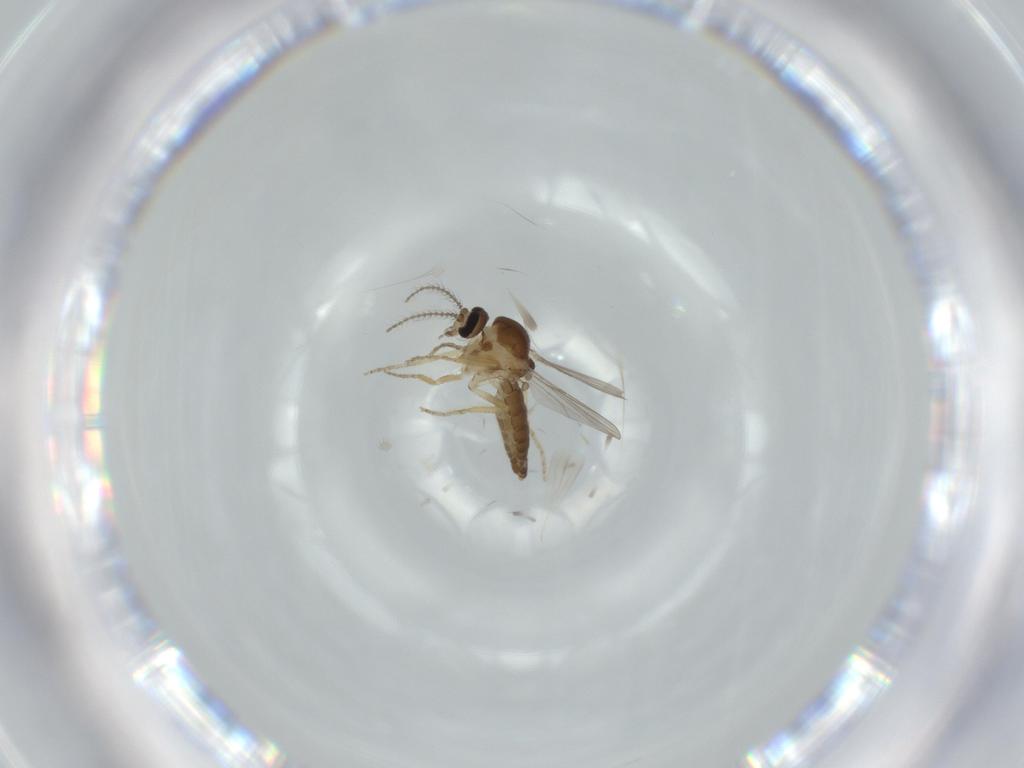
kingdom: Animalia
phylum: Arthropoda
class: Insecta
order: Diptera
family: Ceratopogonidae
